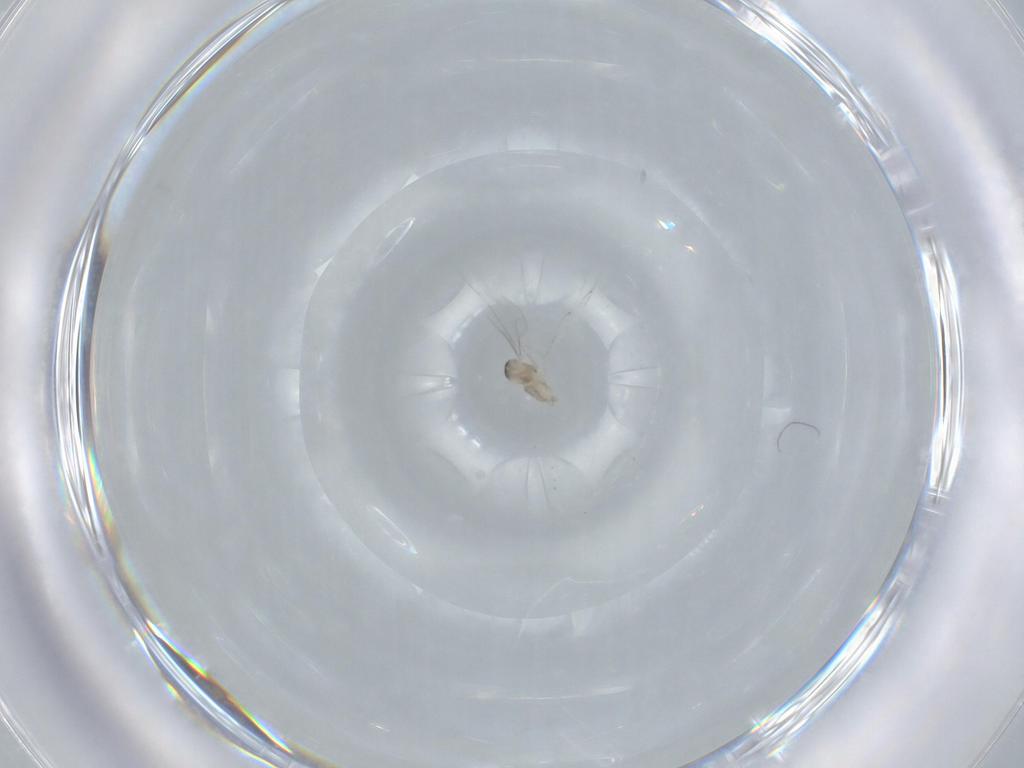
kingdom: Animalia
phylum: Arthropoda
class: Insecta
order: Diptera
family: Cecidomyiidae
